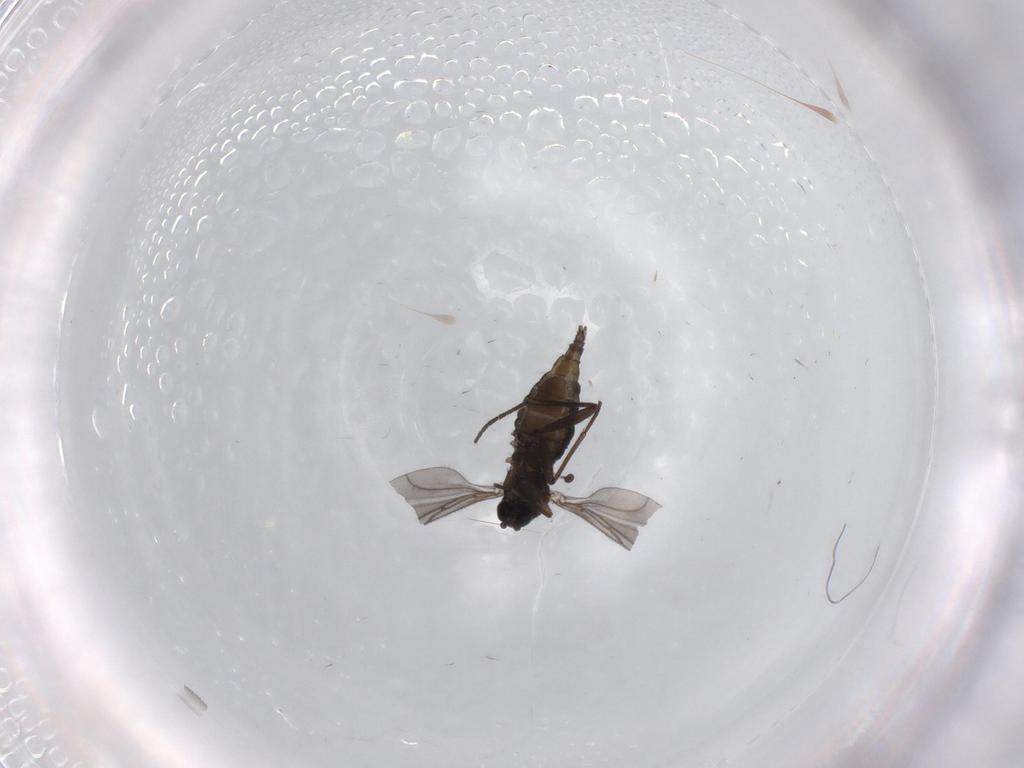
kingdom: Animalia
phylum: Arthropoda
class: Insecta
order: Diptera
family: Sciaridae
